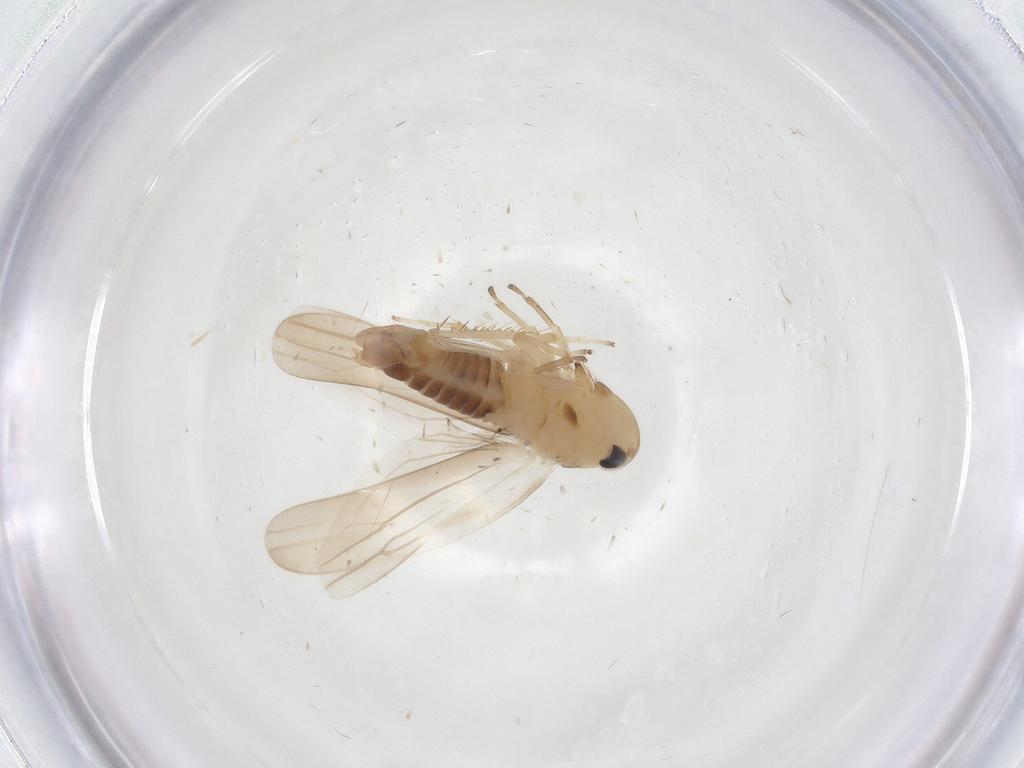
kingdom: Animalia
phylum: Arthropoda
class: Insecta
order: Hemiptera
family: Cicadellidae
